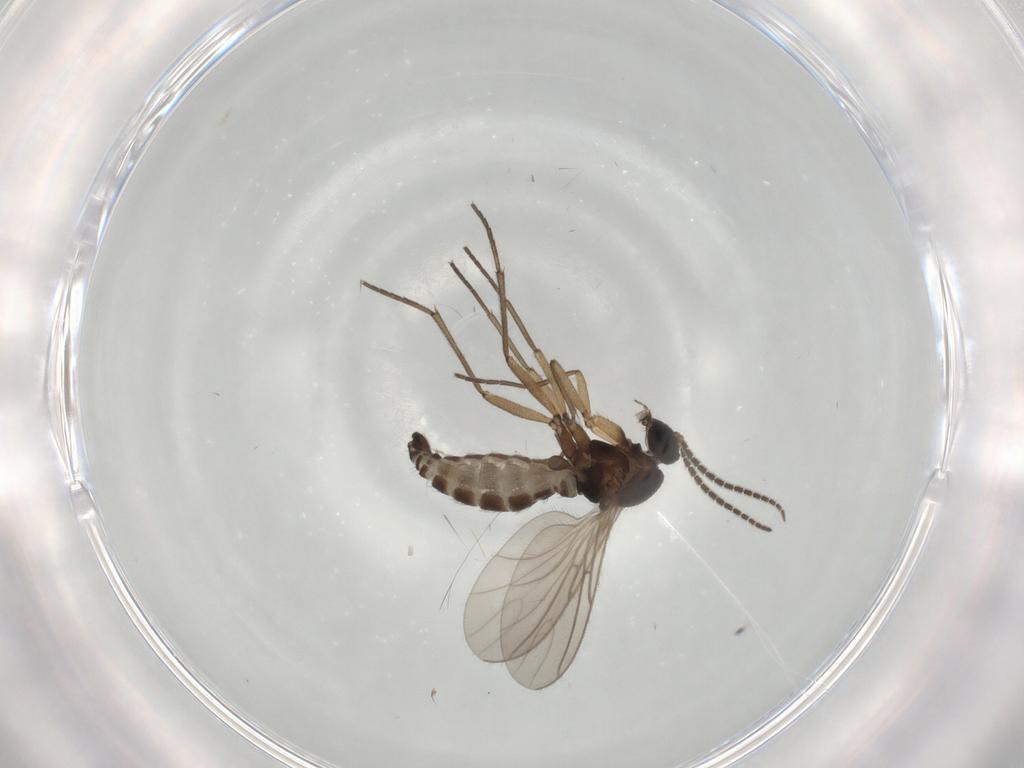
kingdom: Animalia
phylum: Arthropoda
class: Insecta
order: Diptera
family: Sciaridae
